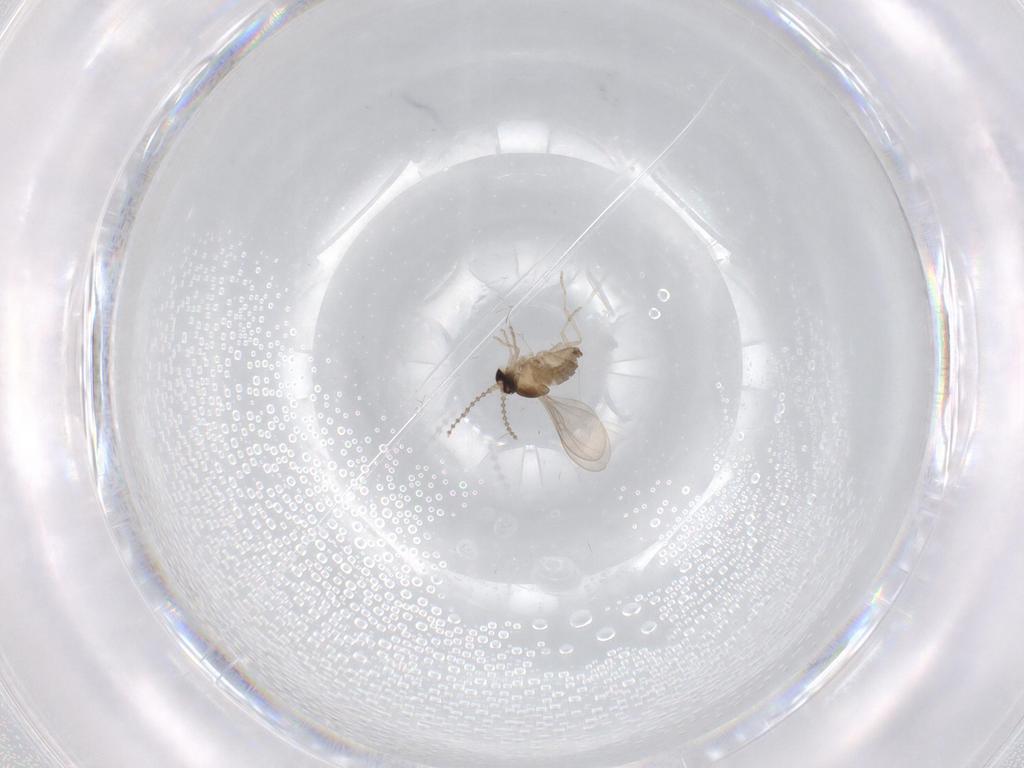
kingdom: Animalia
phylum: Arthropoda
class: Insecta
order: Diptera
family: Cecidomyiidae
